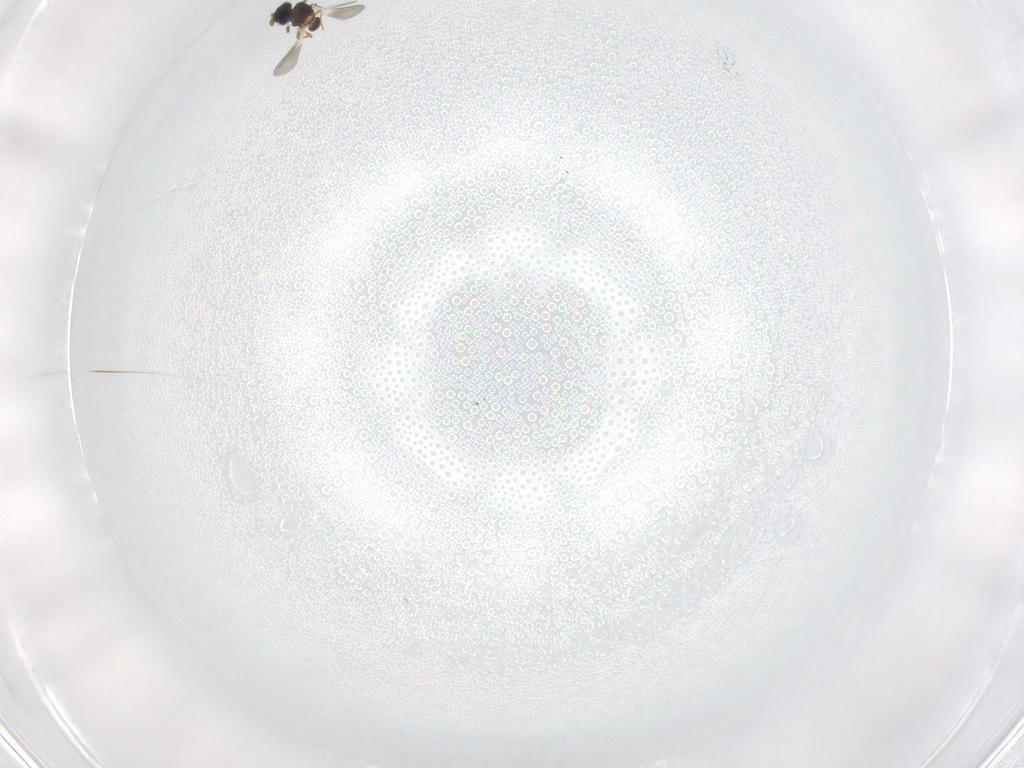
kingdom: Animalia
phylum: Arthropoda
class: Insecta
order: Hymenoptera
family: Platygastridae
